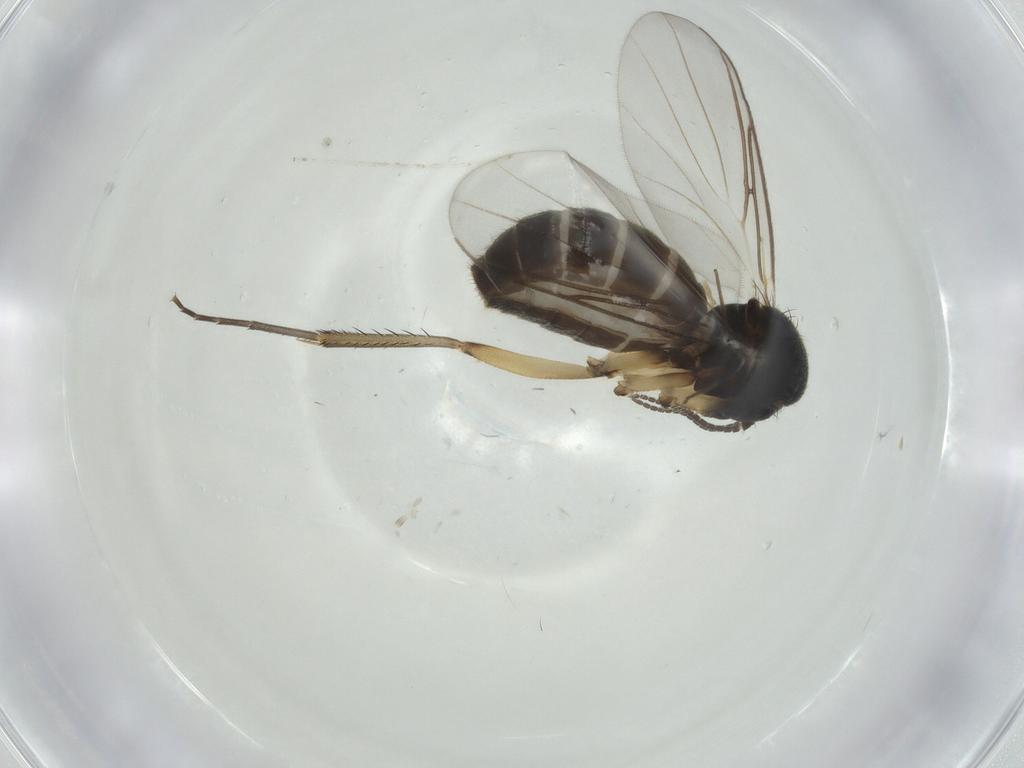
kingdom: Animalia
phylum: Arthropoda
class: Insecta
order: Diptera
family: Mycetophilidae
